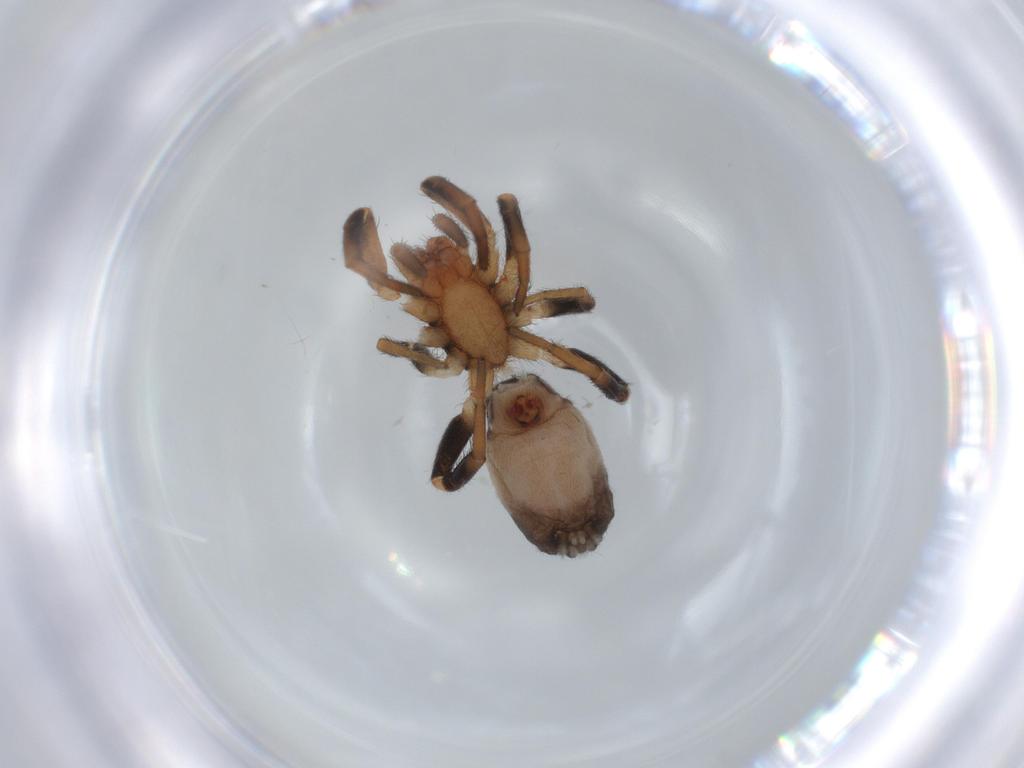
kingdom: Animalia
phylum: Arthropoda
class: Arachnida
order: Araneae
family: Gnaphosidae
